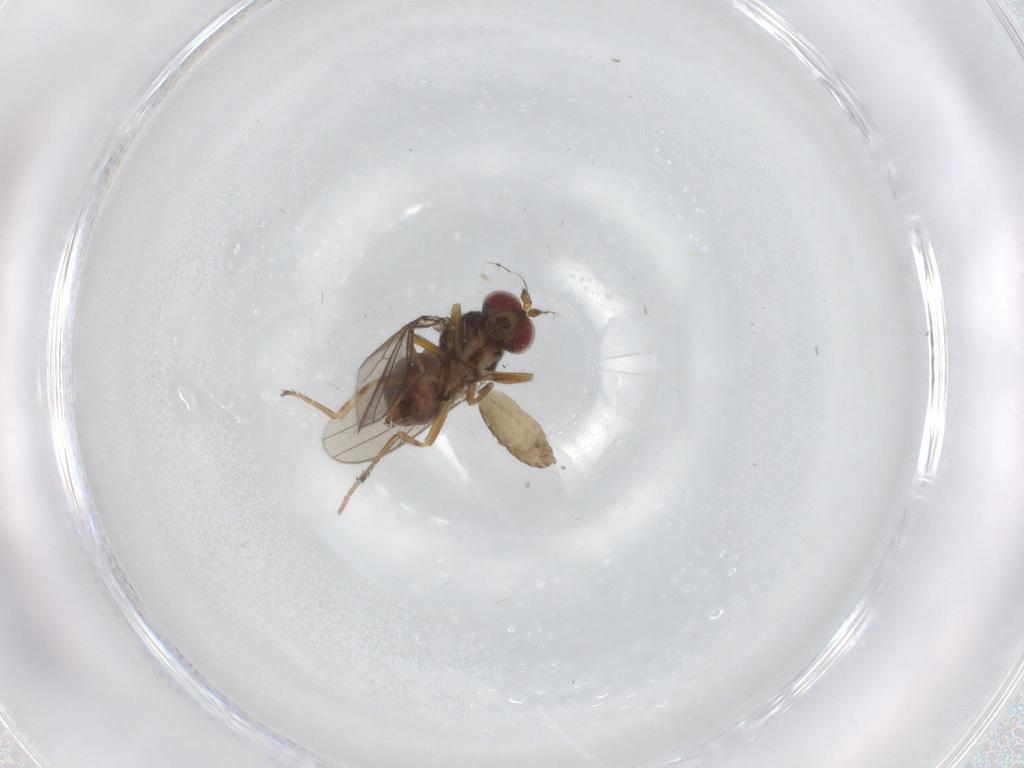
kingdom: Animalia
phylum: Arthropoda
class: Insecta
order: Diptera
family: Chironomidae
